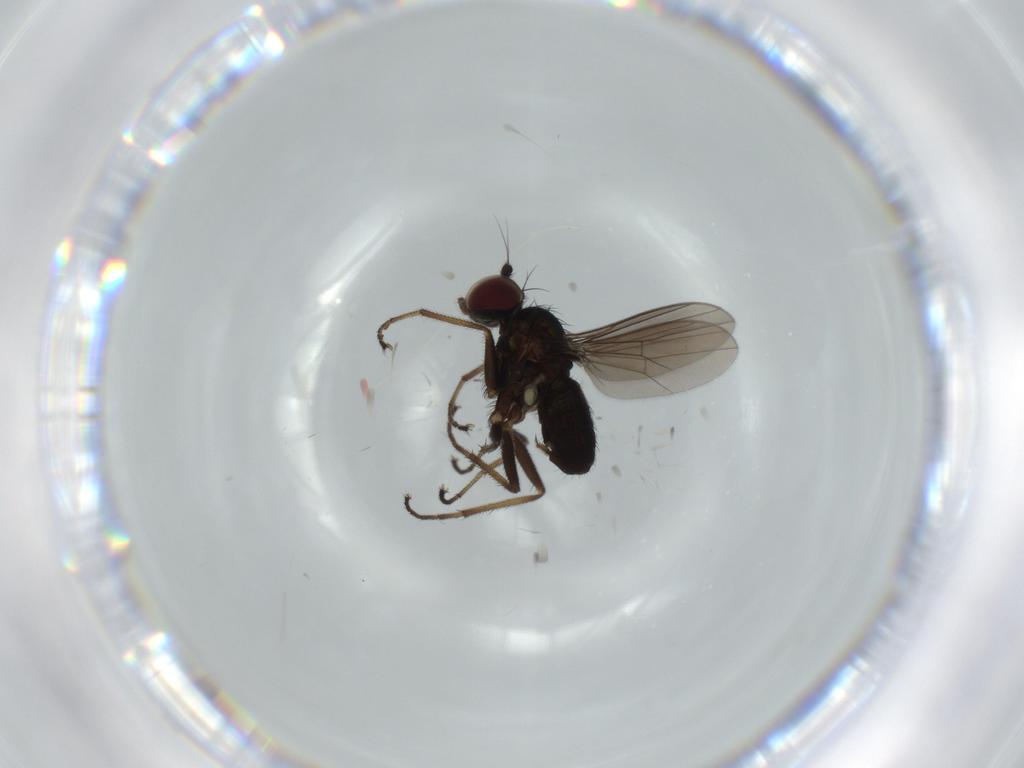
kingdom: Animalia
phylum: Arthropoda
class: Insecta
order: Diptera
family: Dolichopodidae
